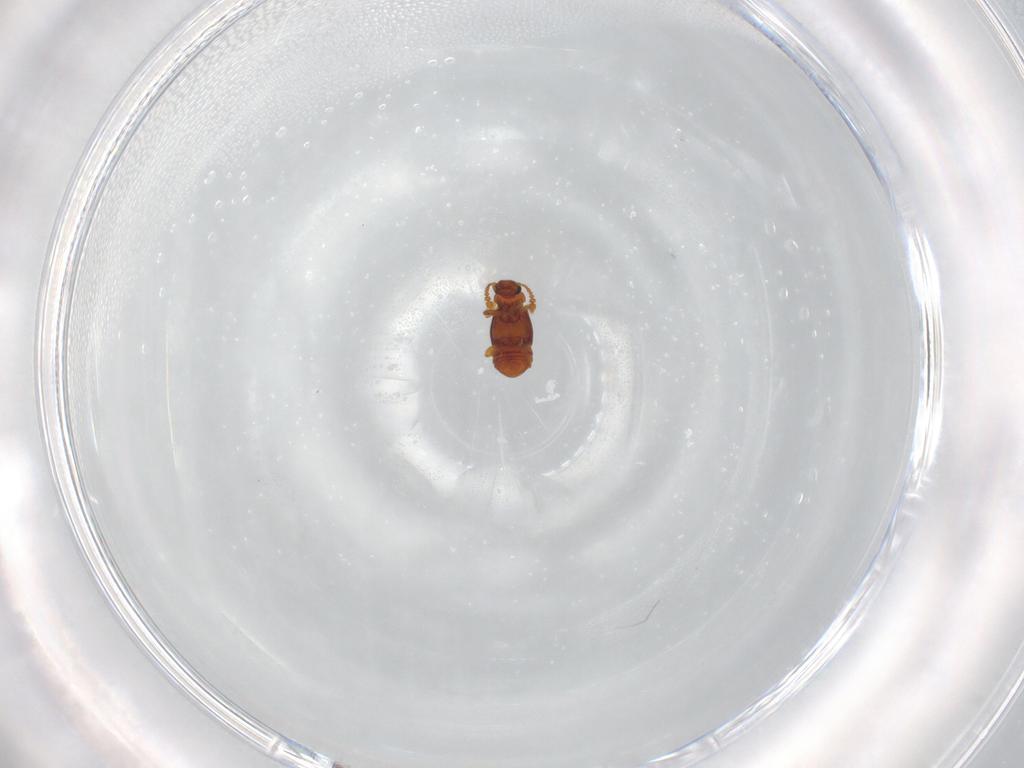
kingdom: Animalia
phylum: Arthropoda
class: Insecta
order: Coleoptera
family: Staphylinidae
